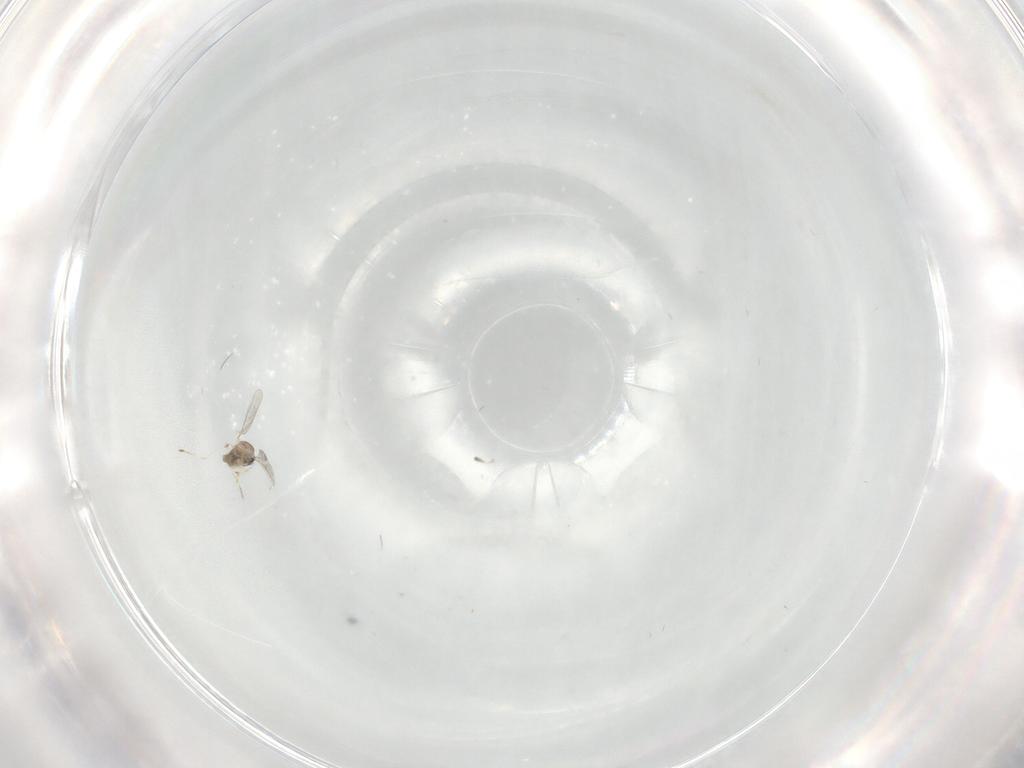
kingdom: Animalia
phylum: Arthropoda
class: Insecta
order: Diptera
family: Cecidomyiidae
